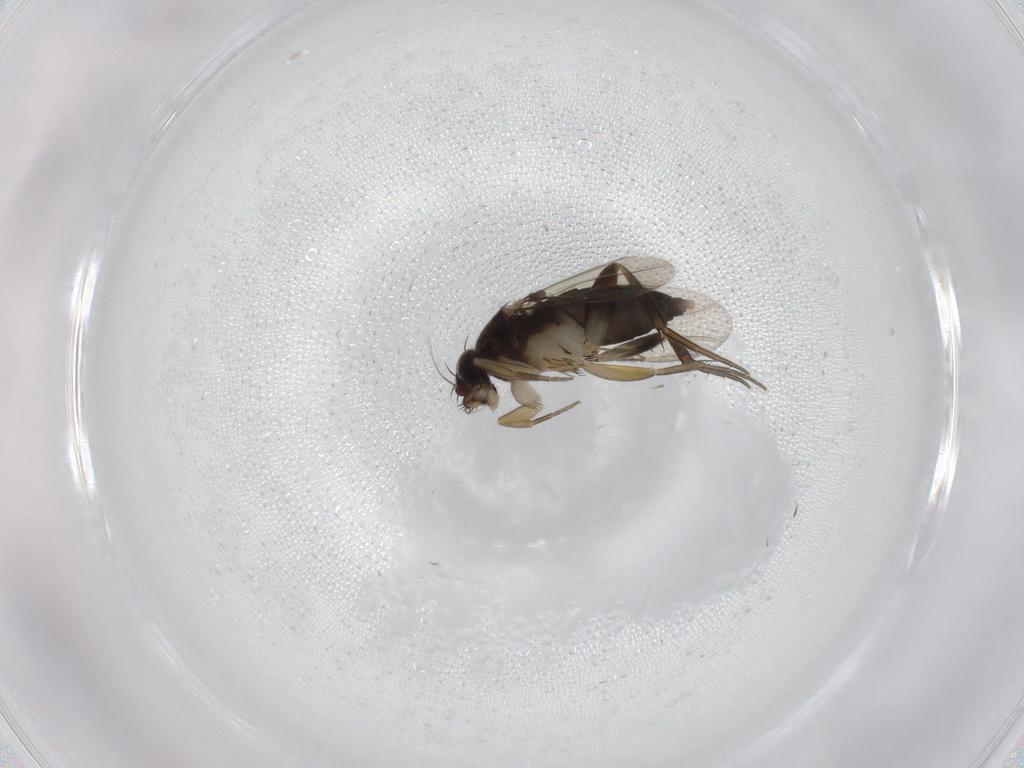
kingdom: Animalia
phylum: Arthropoda
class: Insecta
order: Diptera
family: Phoridae
